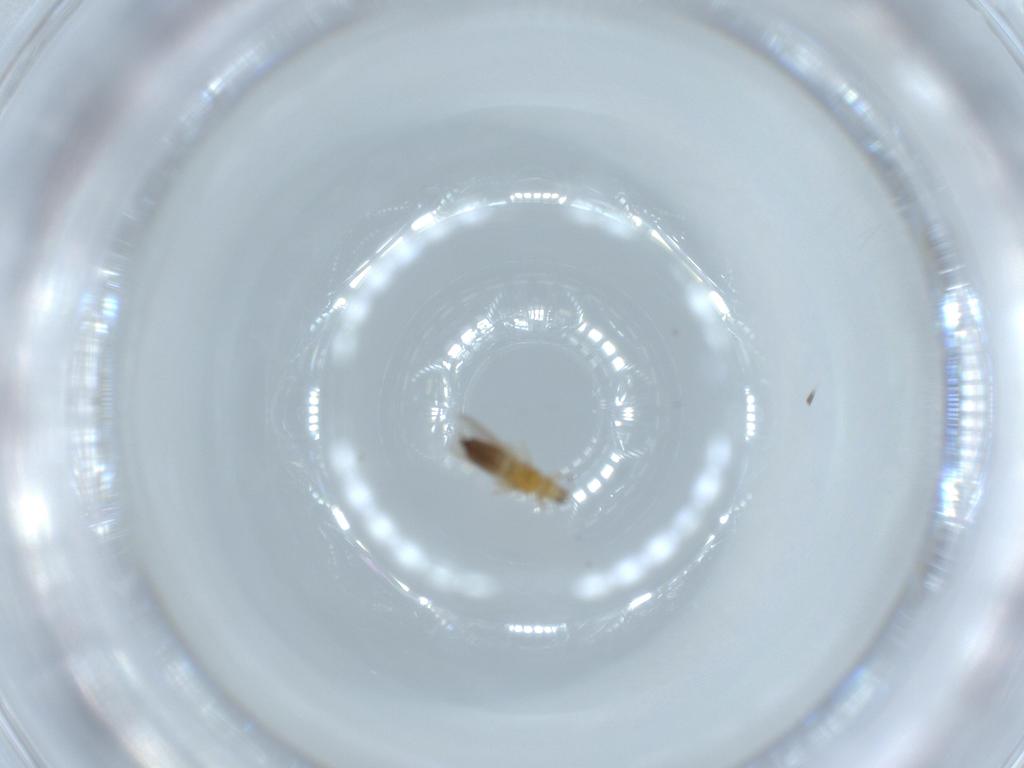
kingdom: Animalia
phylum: Arthropoda
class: Insecta
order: Thysanoptera
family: Thripidae
